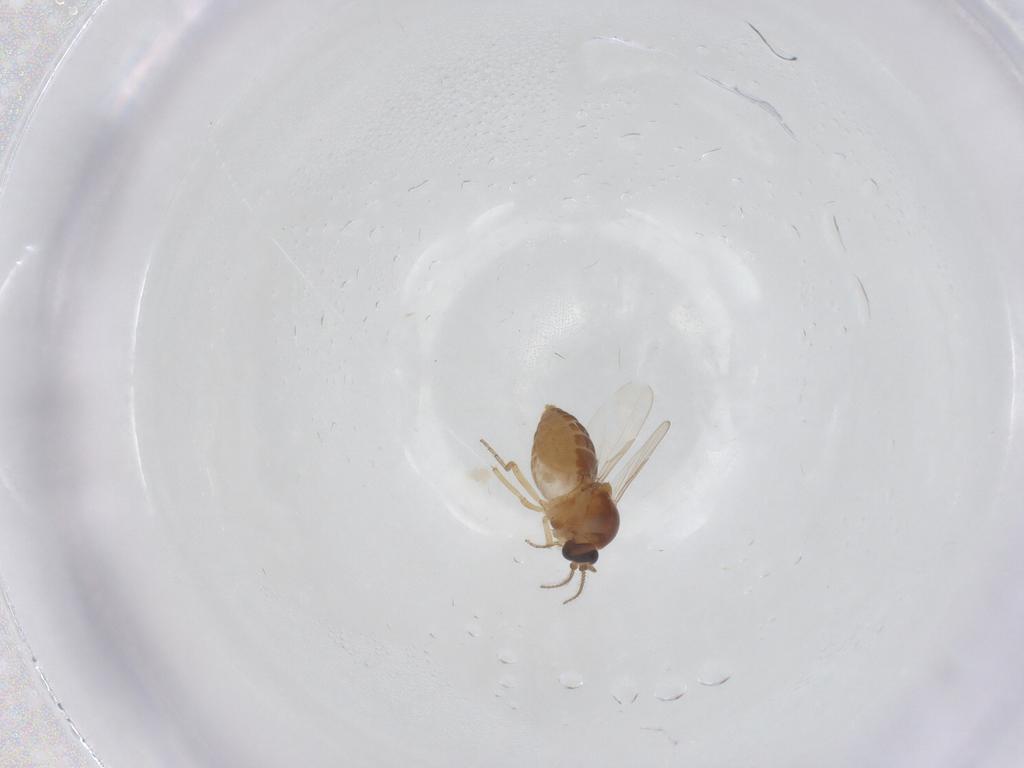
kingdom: Animalia
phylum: Arthropoda
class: Insecta
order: Diptera
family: Ceratopogonidae
